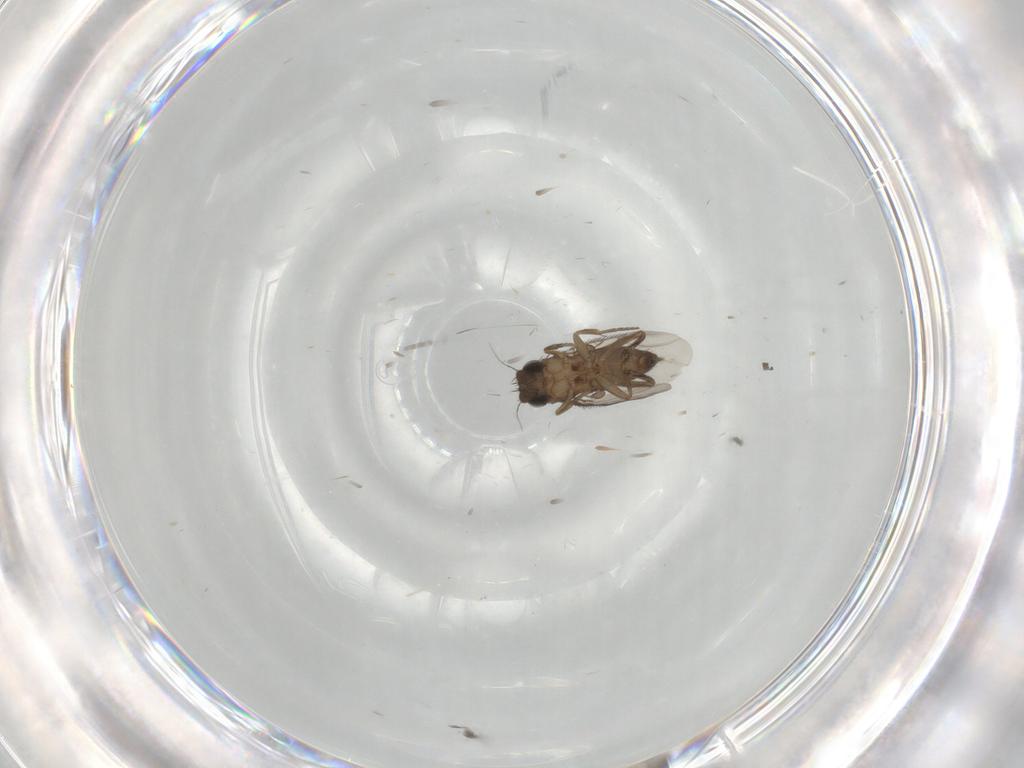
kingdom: Animalia
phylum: Arthropoda
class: Insecta
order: Diptera
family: Phoridae
